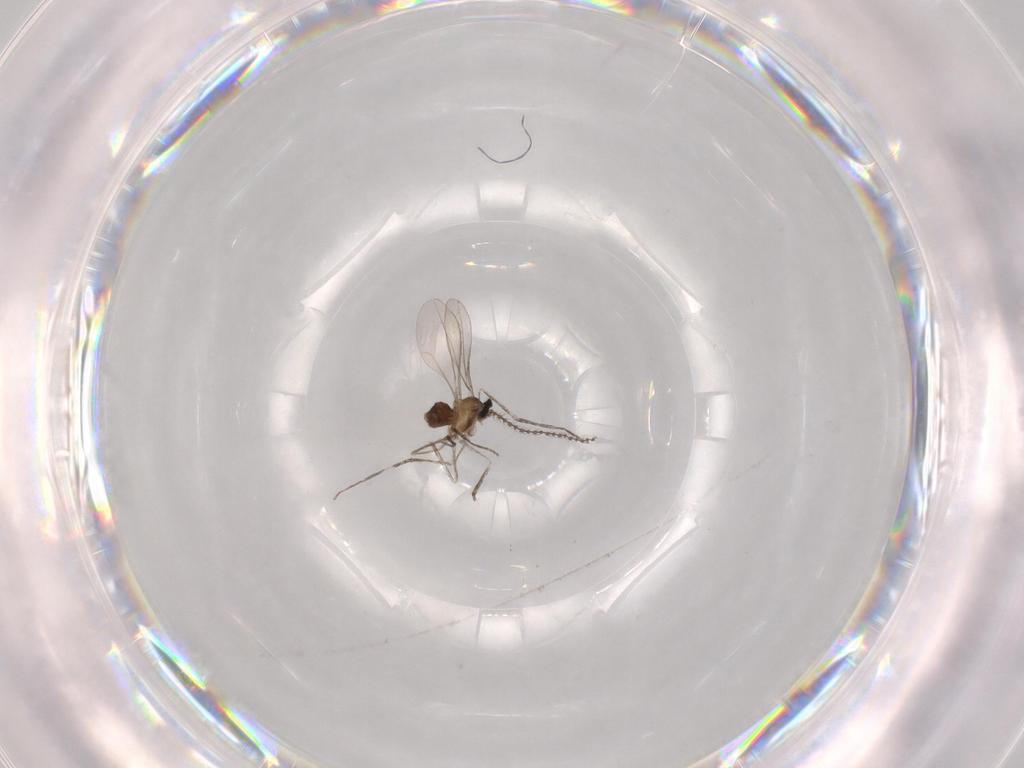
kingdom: Animalia
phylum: Arthropoda
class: Insecta
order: Diptera
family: Cecidomyiidae
